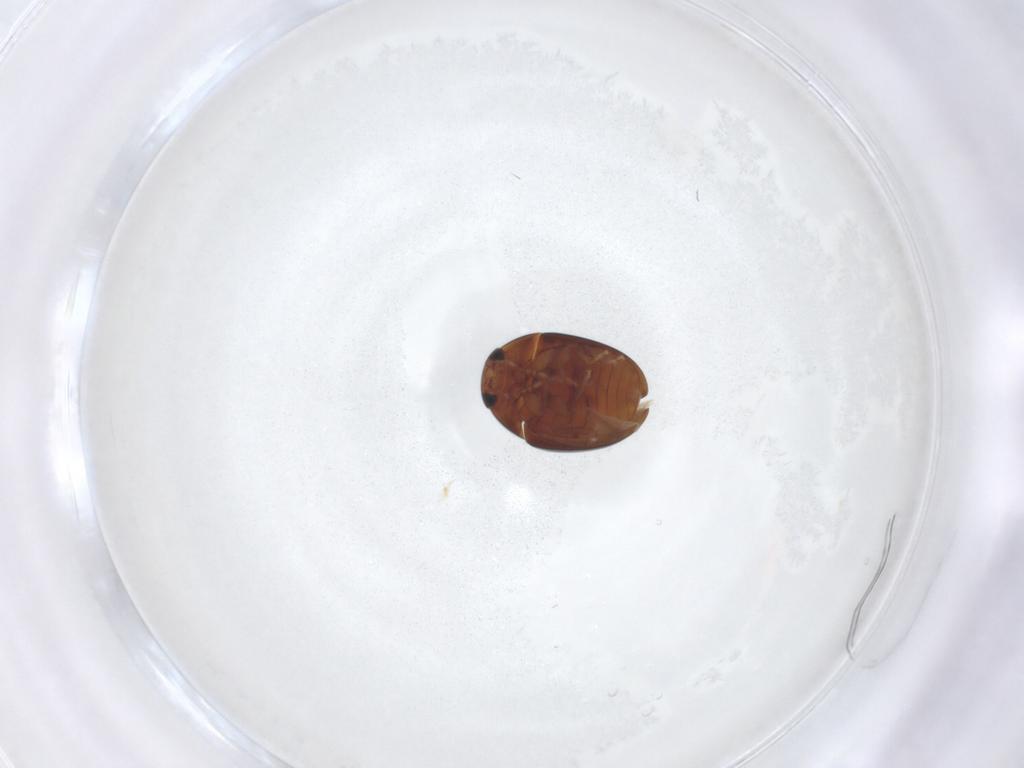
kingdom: Animalia
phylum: Arthropoda
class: Insecta
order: Coleoptera
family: Phalacridae
